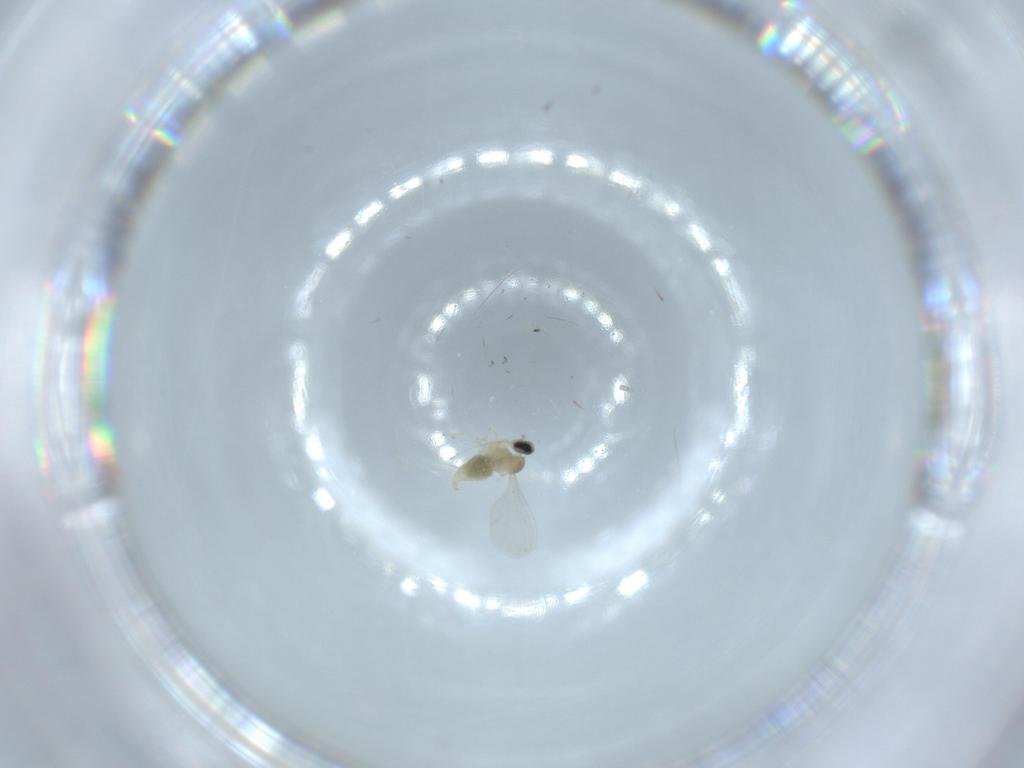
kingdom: Animalia
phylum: Arthropoda
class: Insecta
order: Diptera
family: Cecidomyiidae
